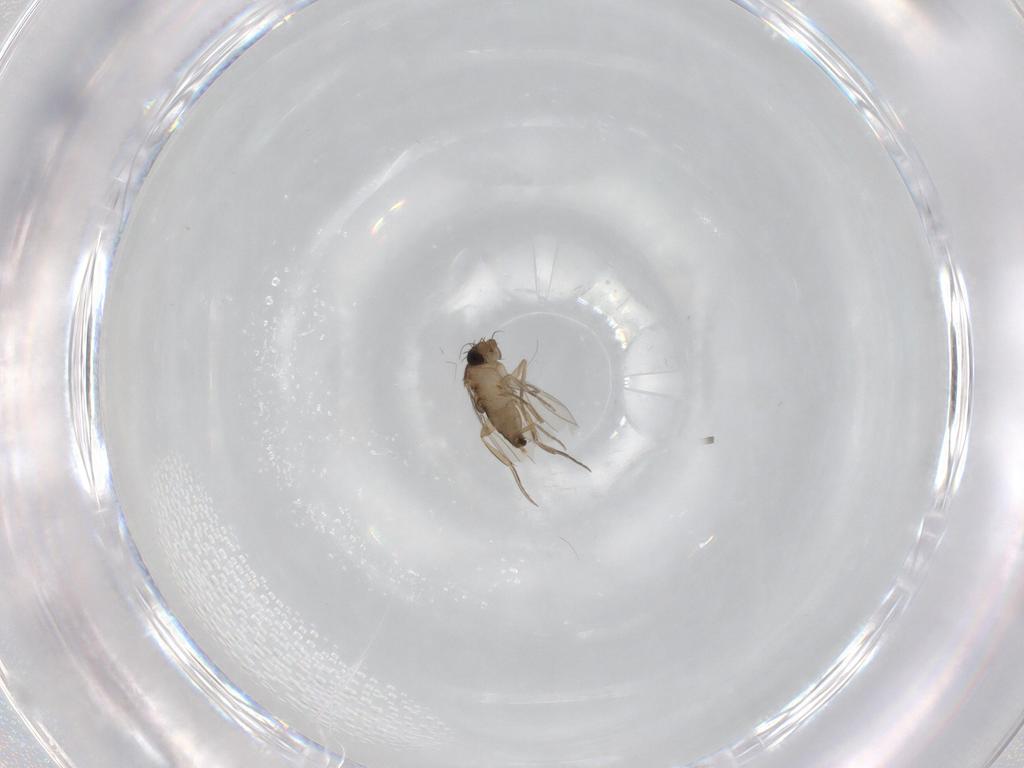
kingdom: Animalia
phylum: Arthropoda
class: Insecta
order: Diptera
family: Phoridae
